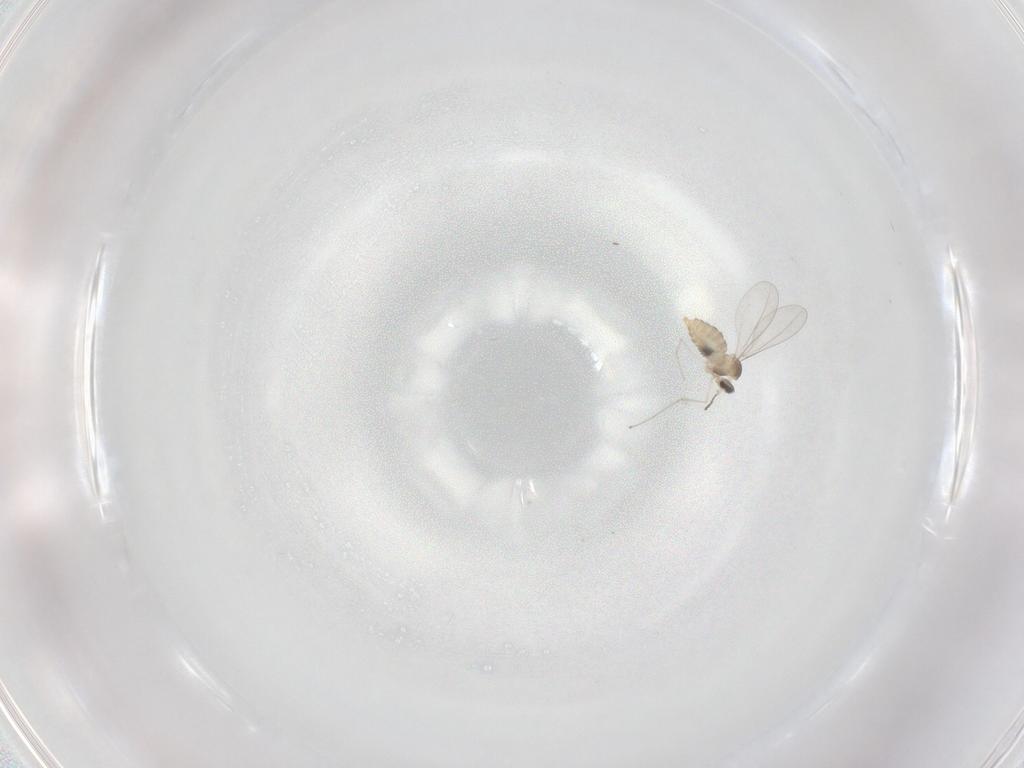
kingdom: Animalia
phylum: Arthropoda
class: Insecta
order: Diptera
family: Cecidomyiidae
